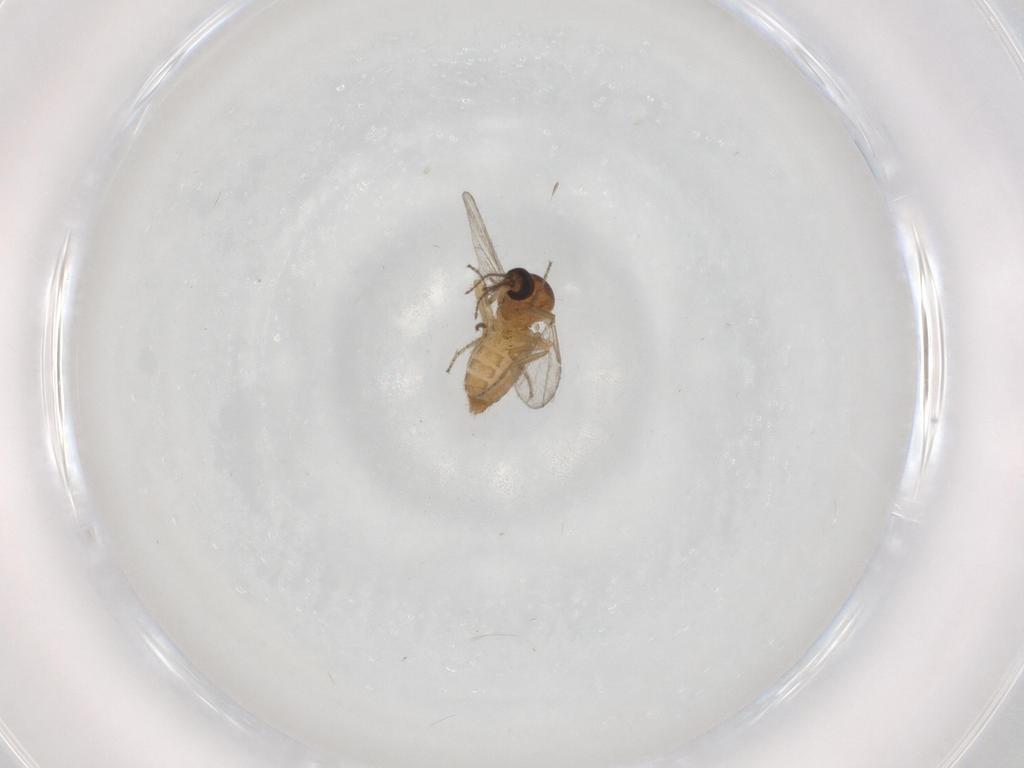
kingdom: Animalia
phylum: Arthropoda
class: Insecta
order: Diptera
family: Ceratopogonidae
